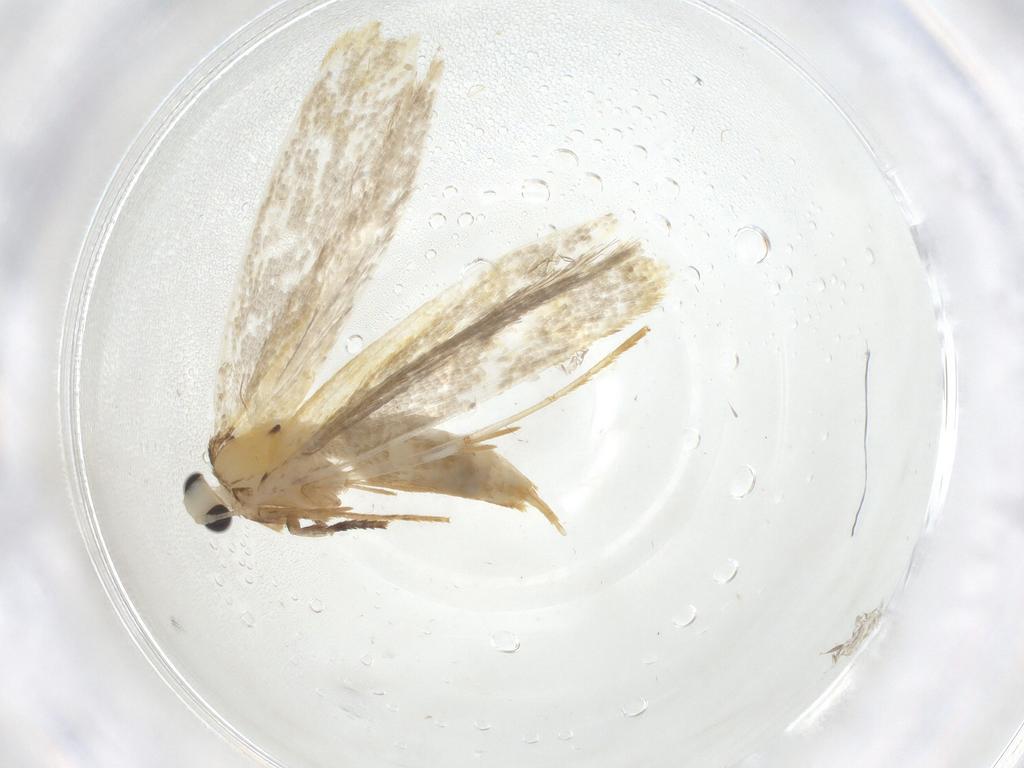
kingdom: Animalia
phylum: Arthropoda
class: Insecta
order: Lepidoptera
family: Tineidae
